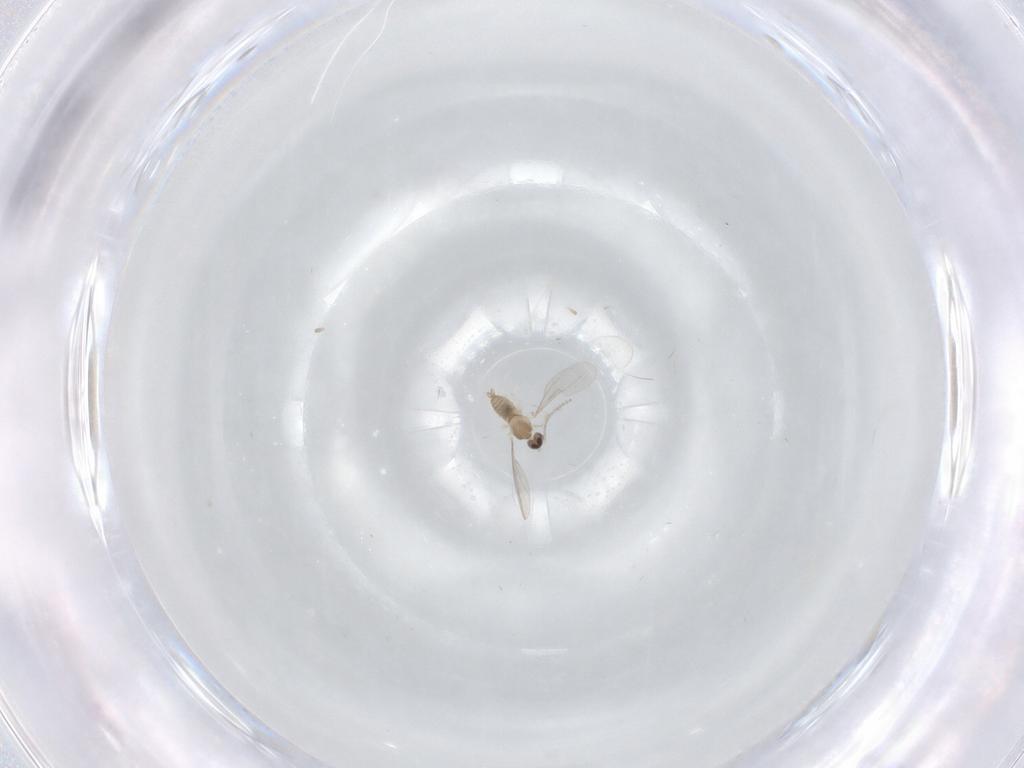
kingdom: Animalia
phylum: Arthropoda
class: Insecta
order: Diptera
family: Cecidomyiidae
